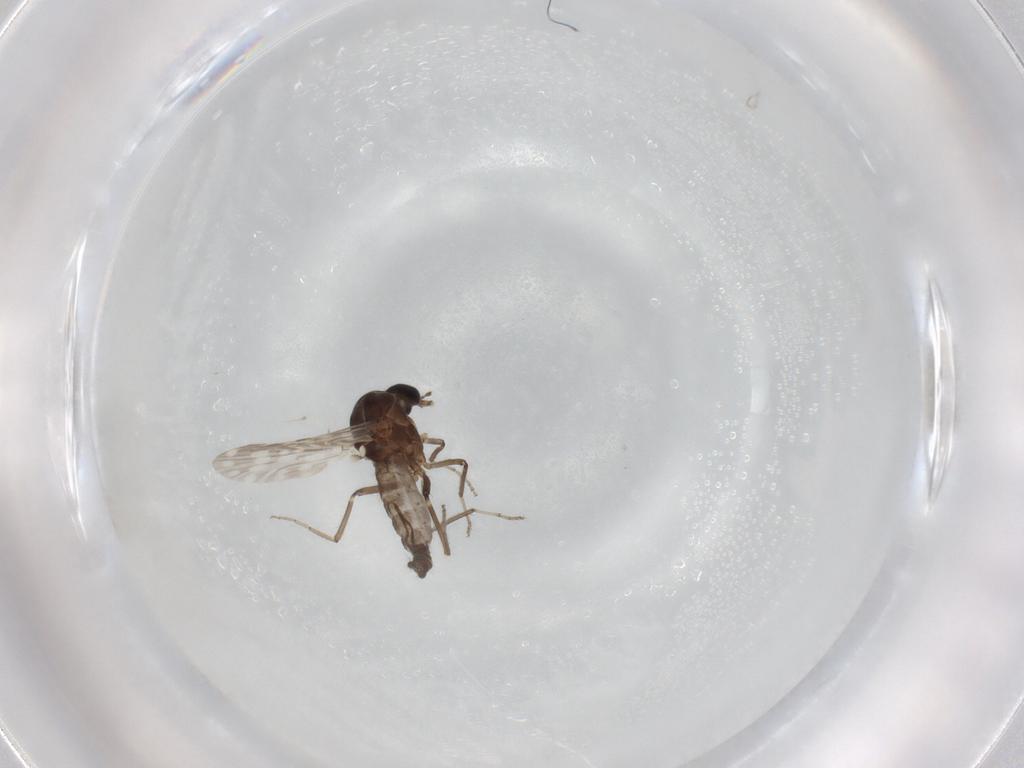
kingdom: Animalia
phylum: Arthropoda
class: Insecta
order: Diptera
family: Ceratopogonidae
